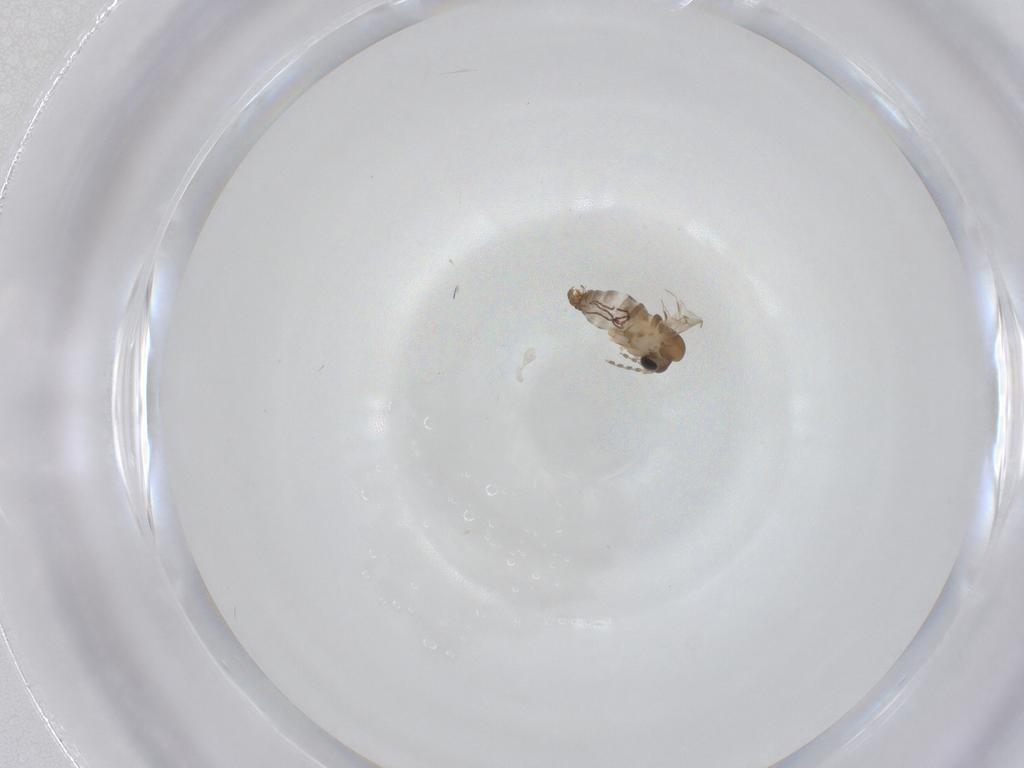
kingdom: Animalia
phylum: Arthropoda
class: Insecta
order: Diptera
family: Psychodidae
